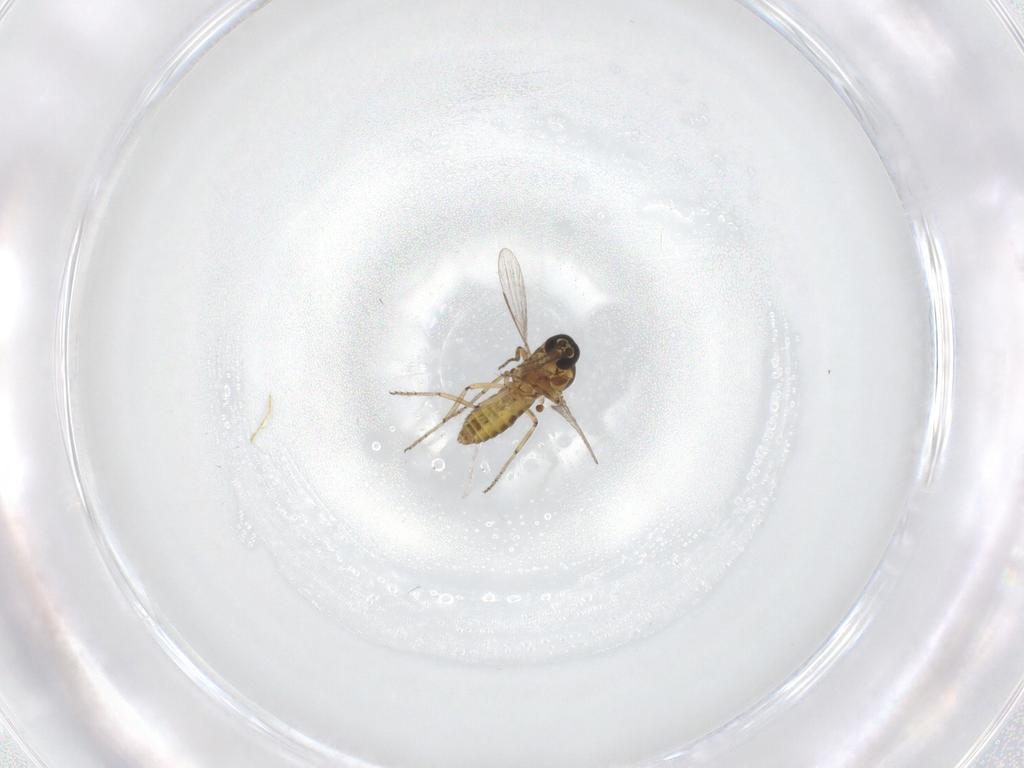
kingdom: Animalia
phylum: Arthropoda
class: Insecta
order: Diptera
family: Ceratopogonidae
